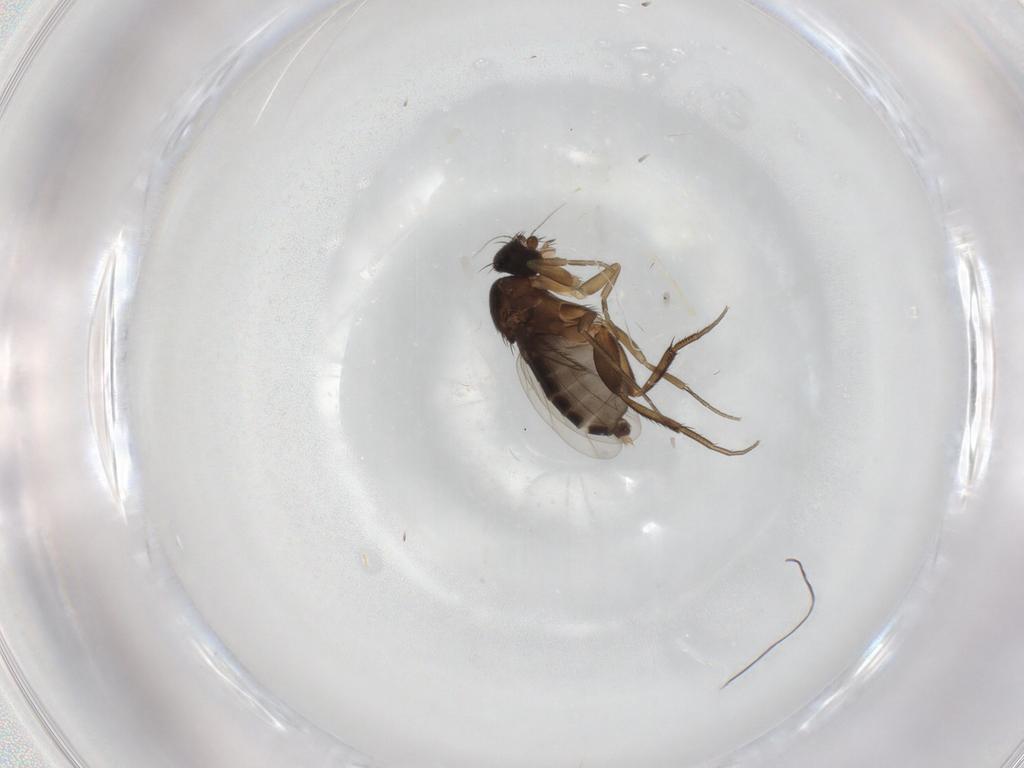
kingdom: Animalia
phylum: Arthropoda
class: Insecta
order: Diptera
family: Phoridae
